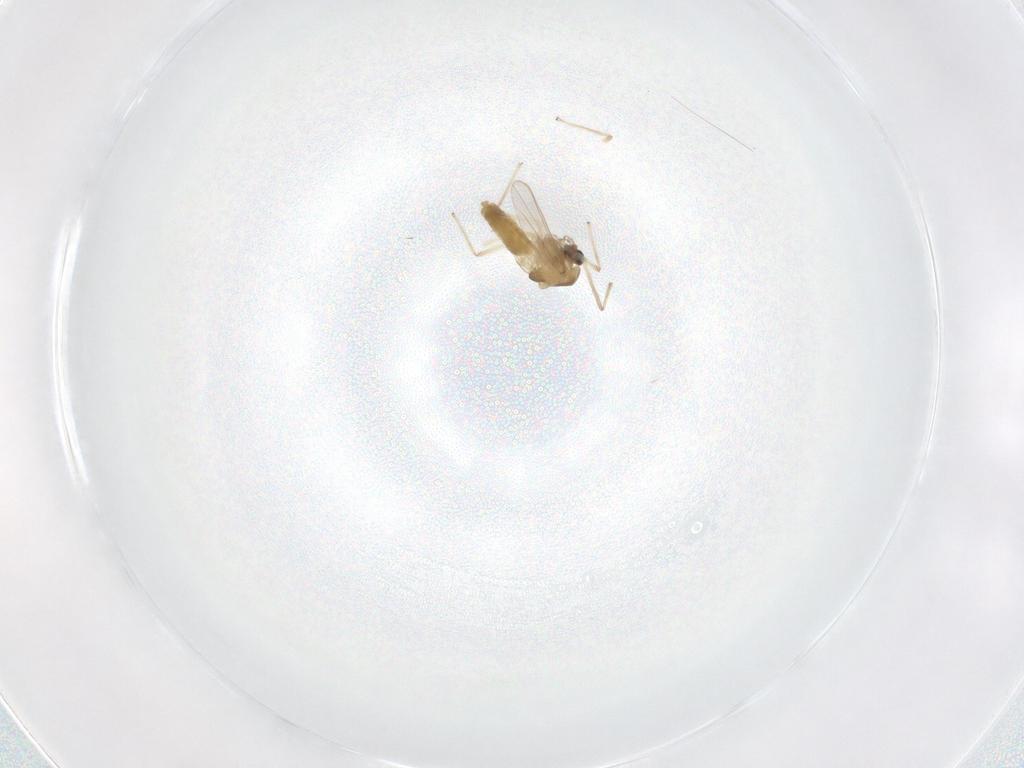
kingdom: Animalia
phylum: Arthropoda
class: Insecta
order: Diptera
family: Chironomidae
